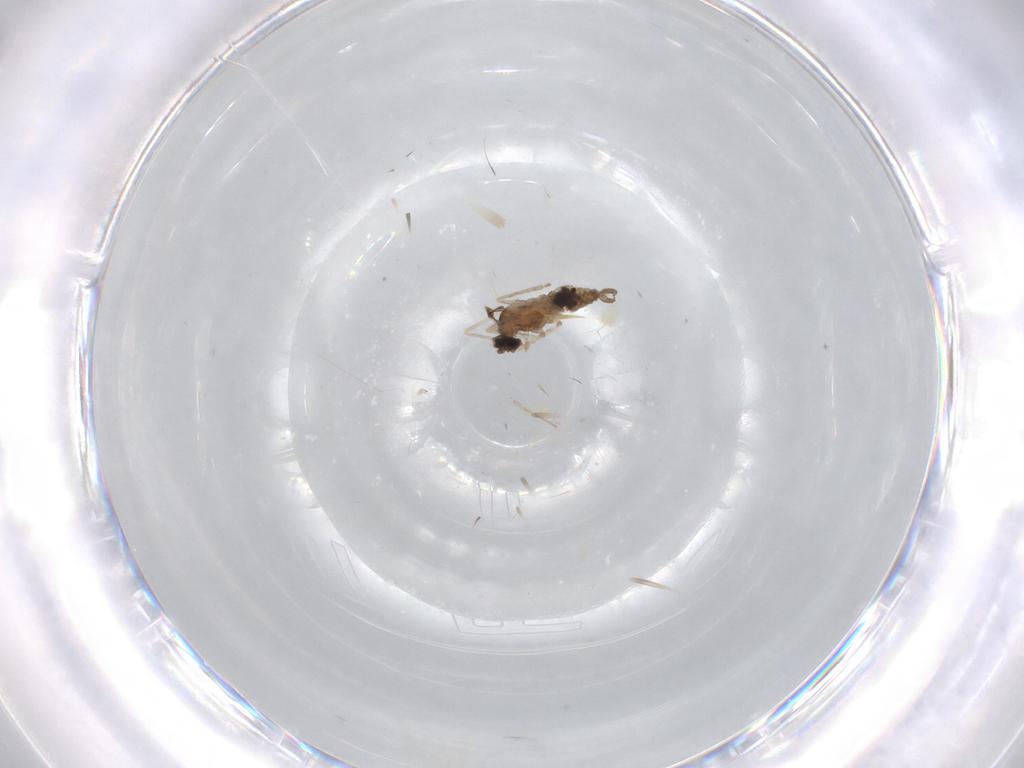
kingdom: Animalia
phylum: Arthropoda
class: Insecta
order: Diptera
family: Cecidomyiidae
